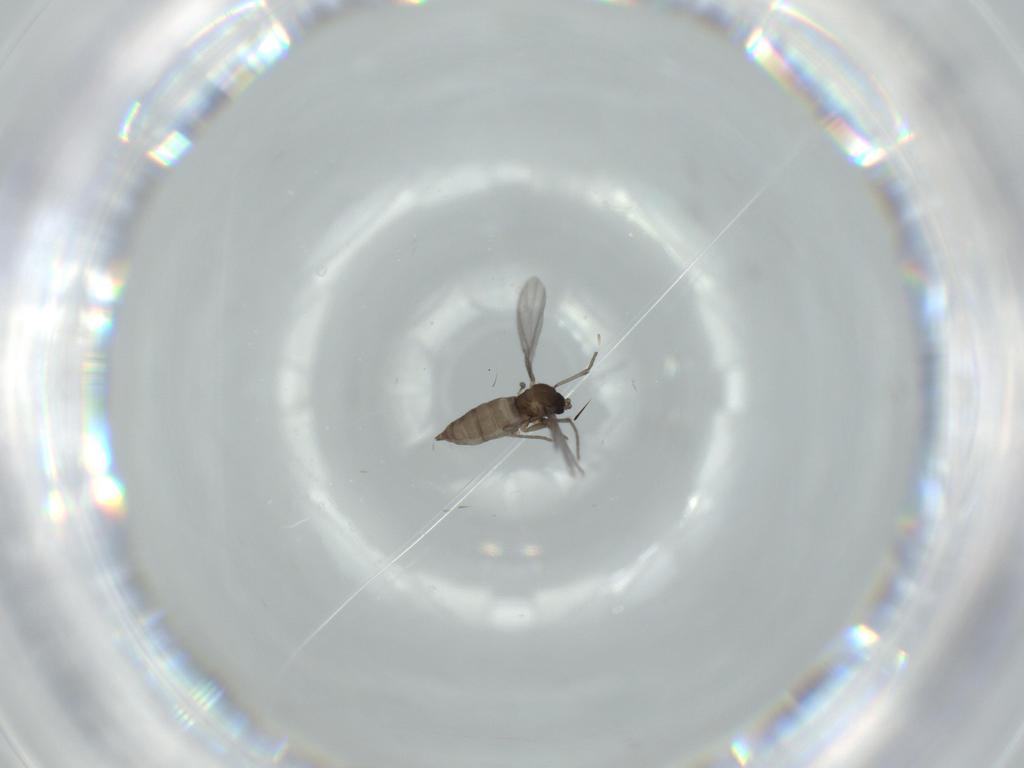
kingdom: Animalia
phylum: Arthropoda
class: Insecta
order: Diptera
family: Sciaridae
